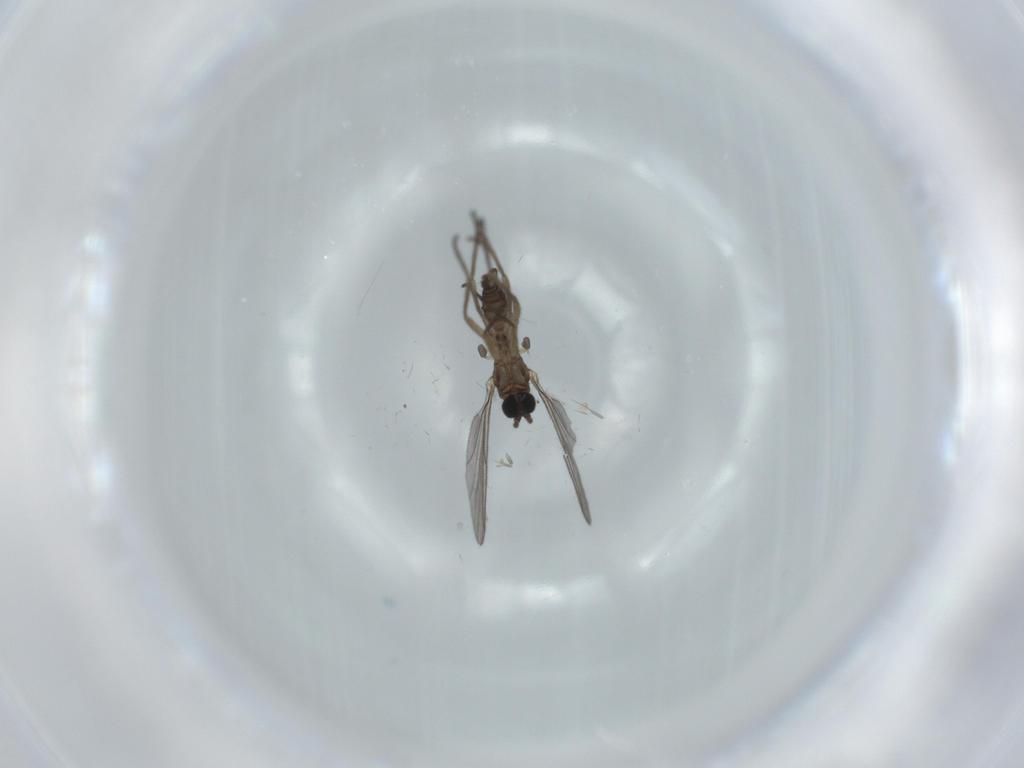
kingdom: Animalia
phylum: Arthropoda
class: Insecta
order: Diptera
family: Sciaridae
